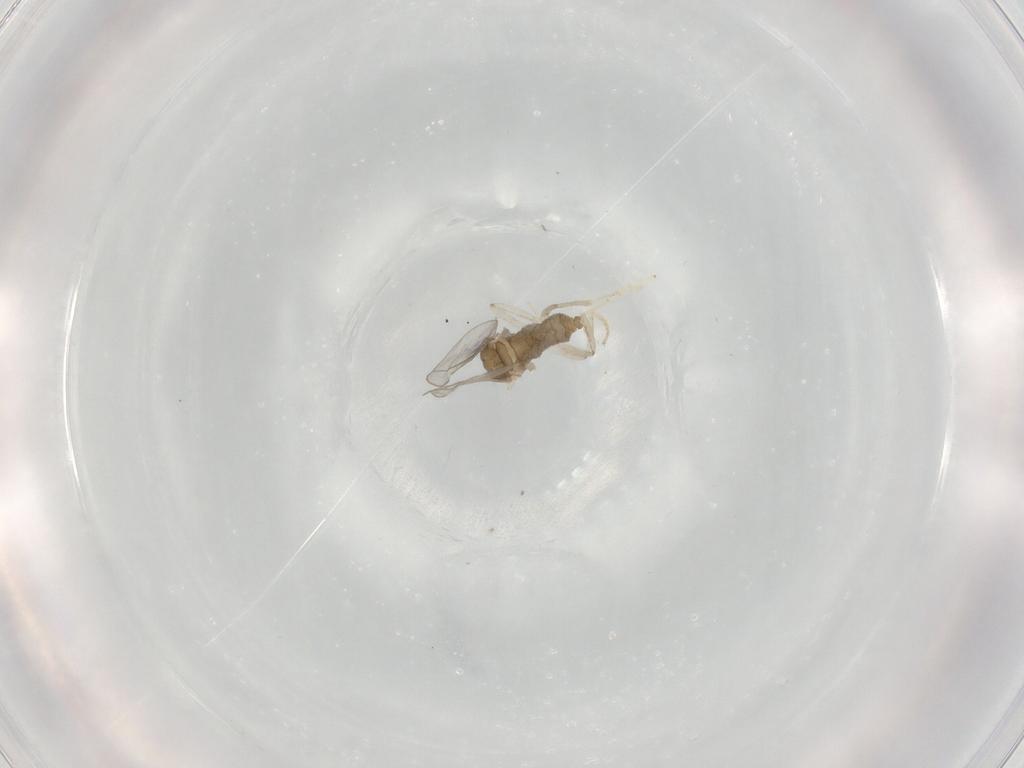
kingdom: Animalia
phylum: Arthropoda
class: Insecta
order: Diptera
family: Cecidomyiidae
